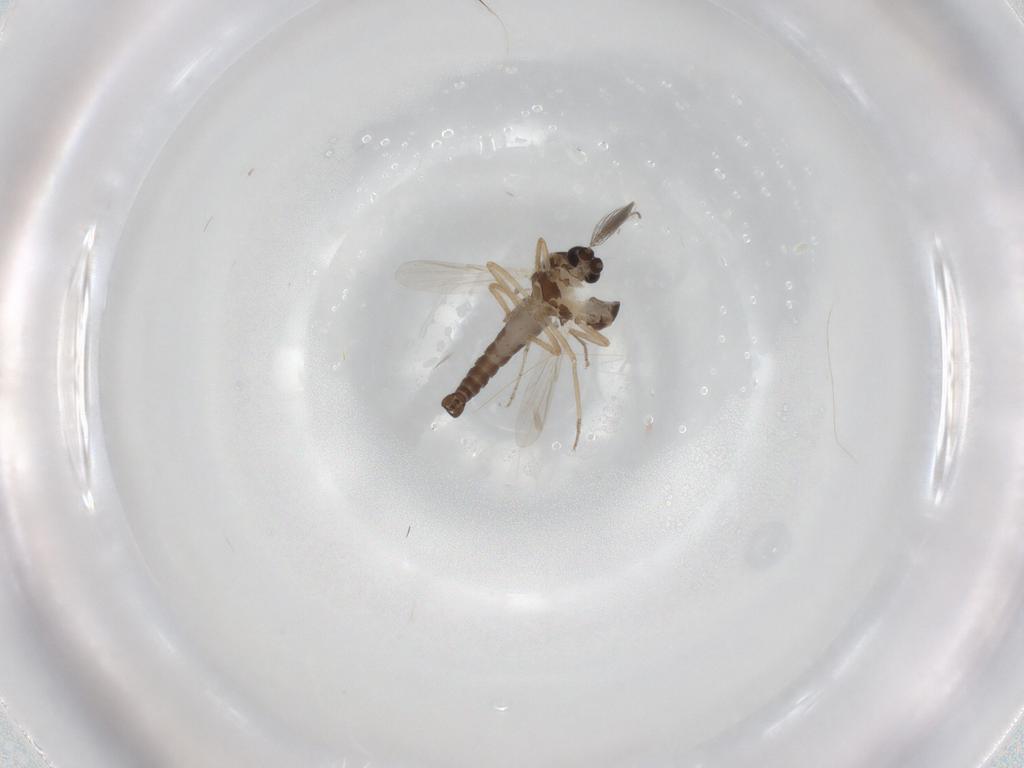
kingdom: Animalia
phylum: Arthropoda
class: Insecta
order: Diptera
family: Ceratopogonidae
